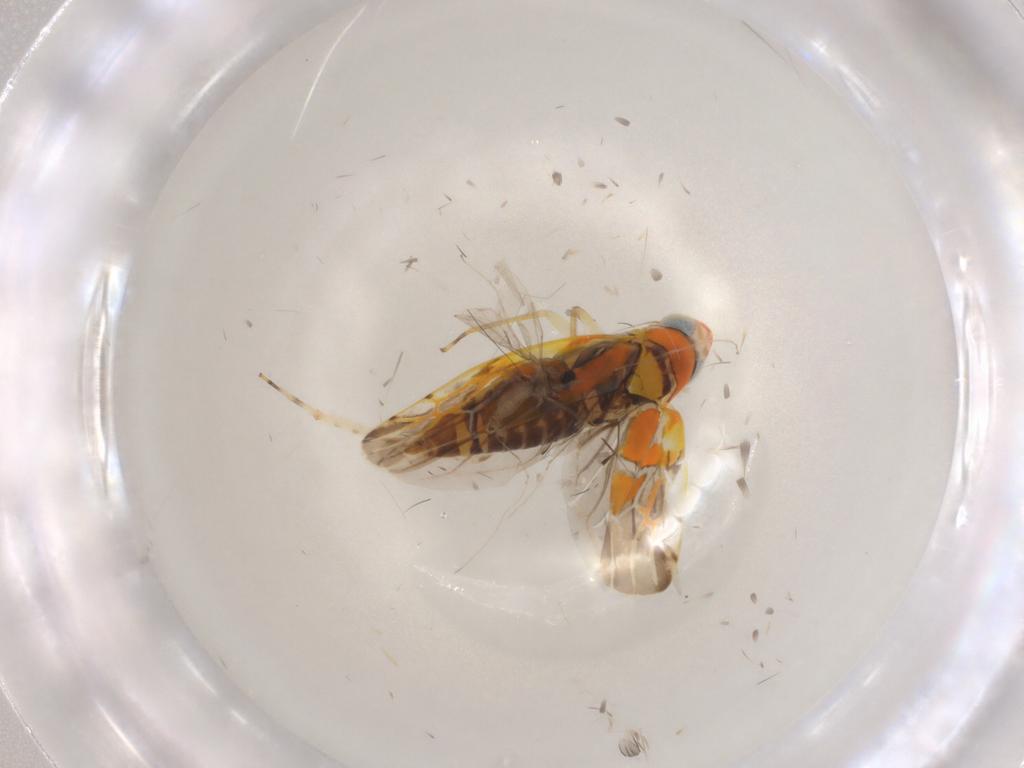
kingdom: Animalia
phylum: Arthropoda
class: Insecta
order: Hemiptera
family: Cicadellidae
